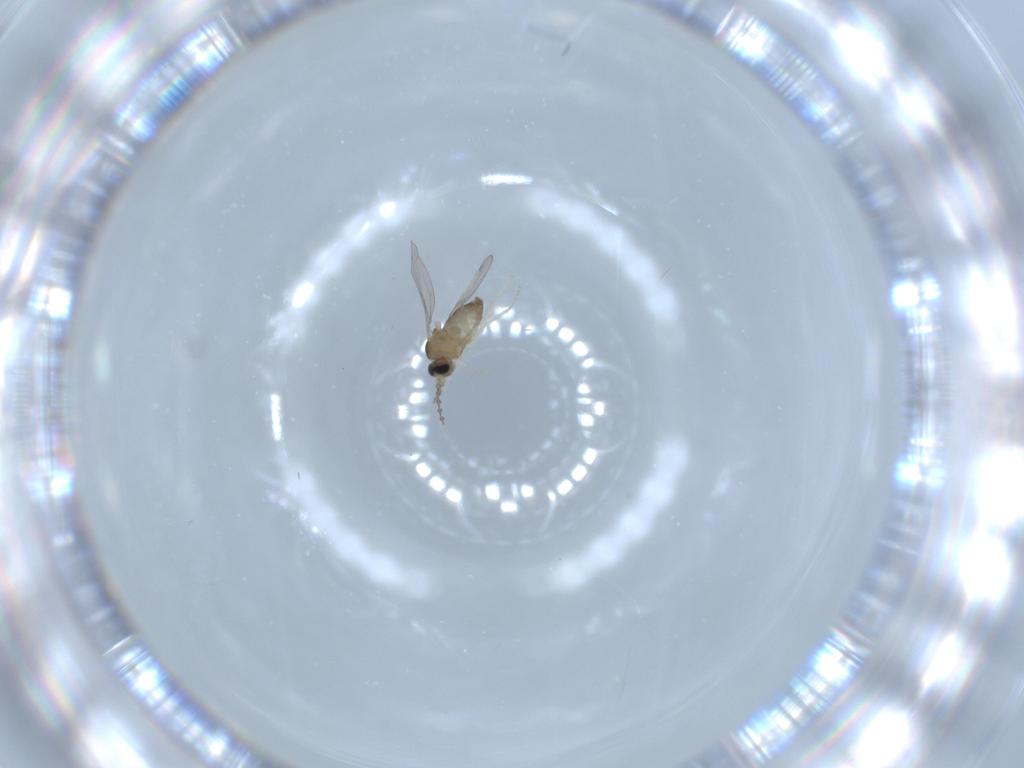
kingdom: Animalia
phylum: Arthropoda
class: Insecta
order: Diptera
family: Cecidomyiidae
